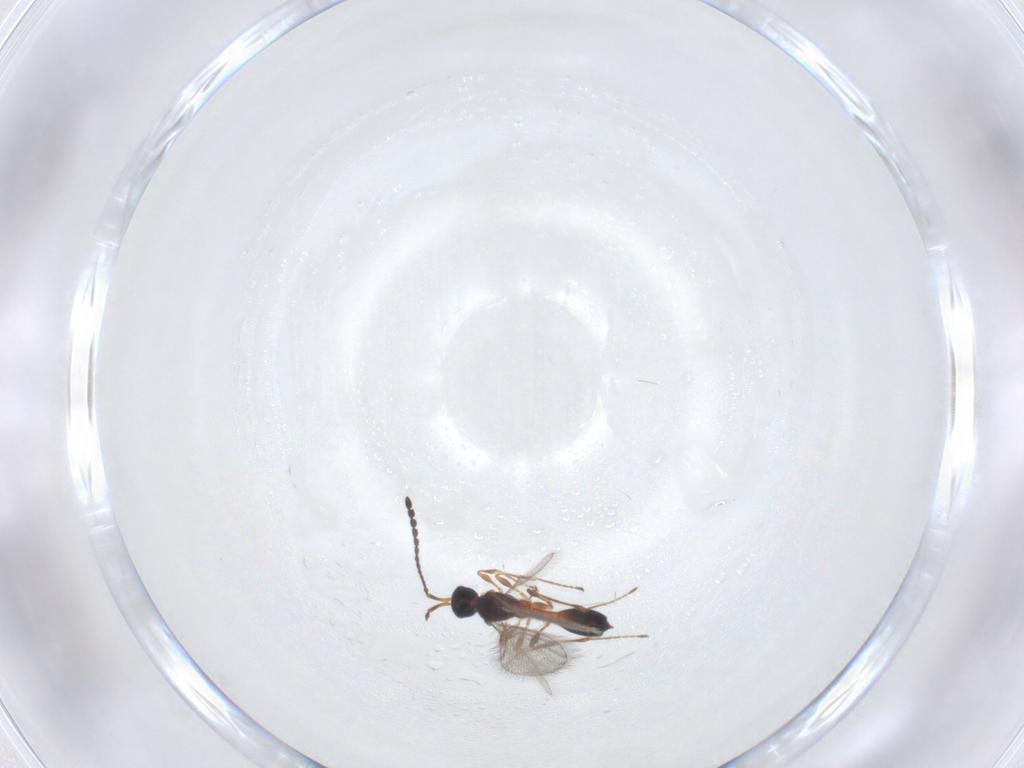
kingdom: Animalia
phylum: Arthropoda
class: Insecta
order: Hymenoptera
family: Diapriidae
